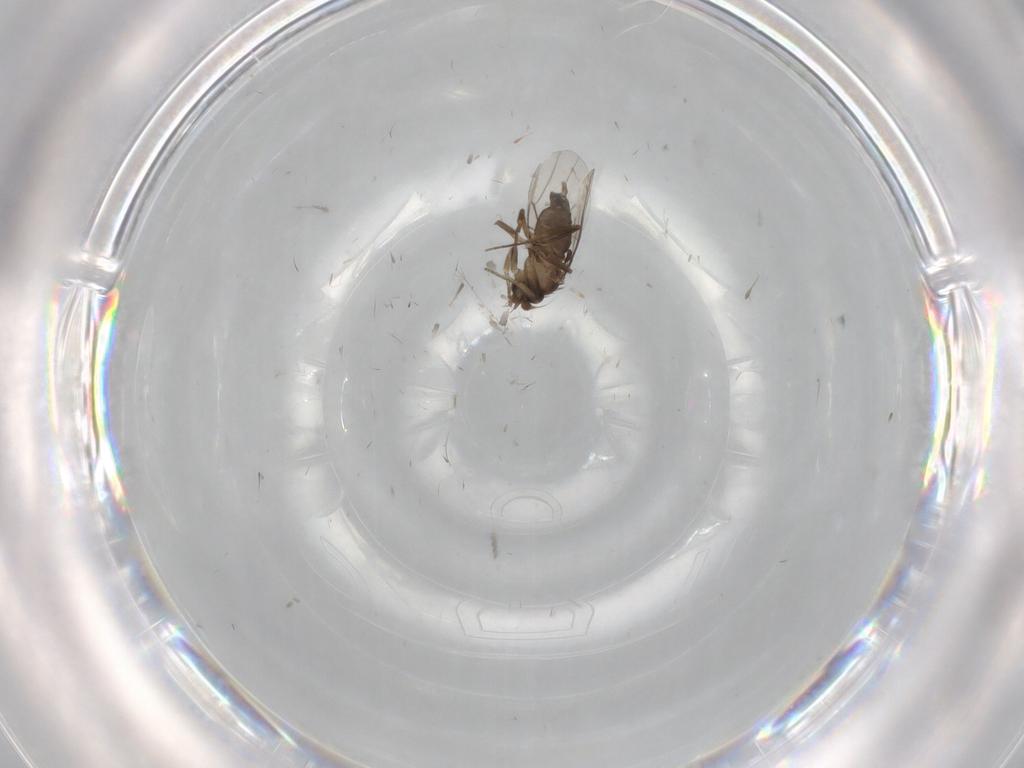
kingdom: Animalia
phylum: Arthropoda
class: Insecta
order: Diptera
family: Phoridae
